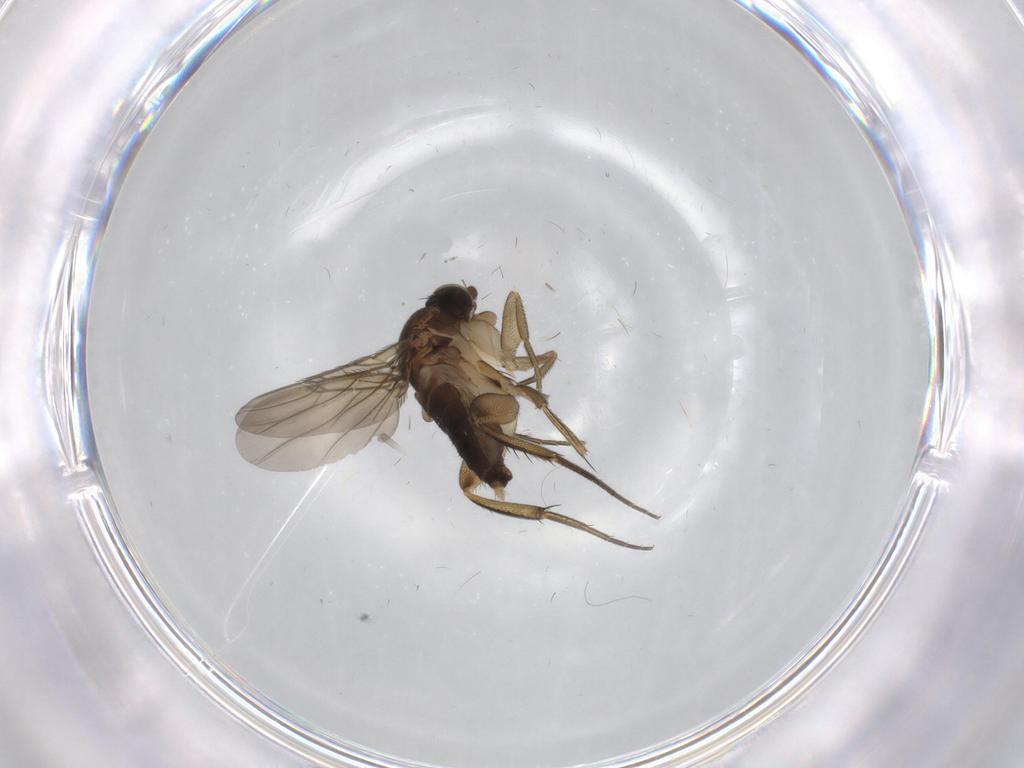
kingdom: Animalia
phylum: Arthropoda
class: Insecta
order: Diptera
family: Phoridae
